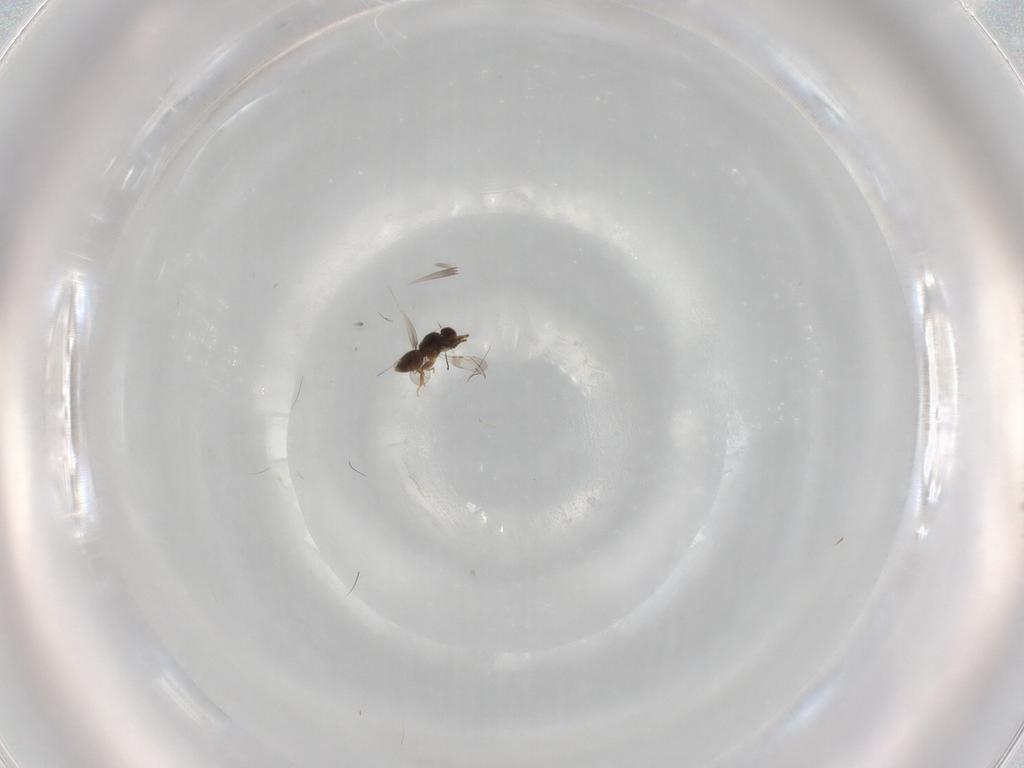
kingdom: Animalia
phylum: Arthropoda
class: Insecta
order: Hymenoptera
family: Ceraphronidae
